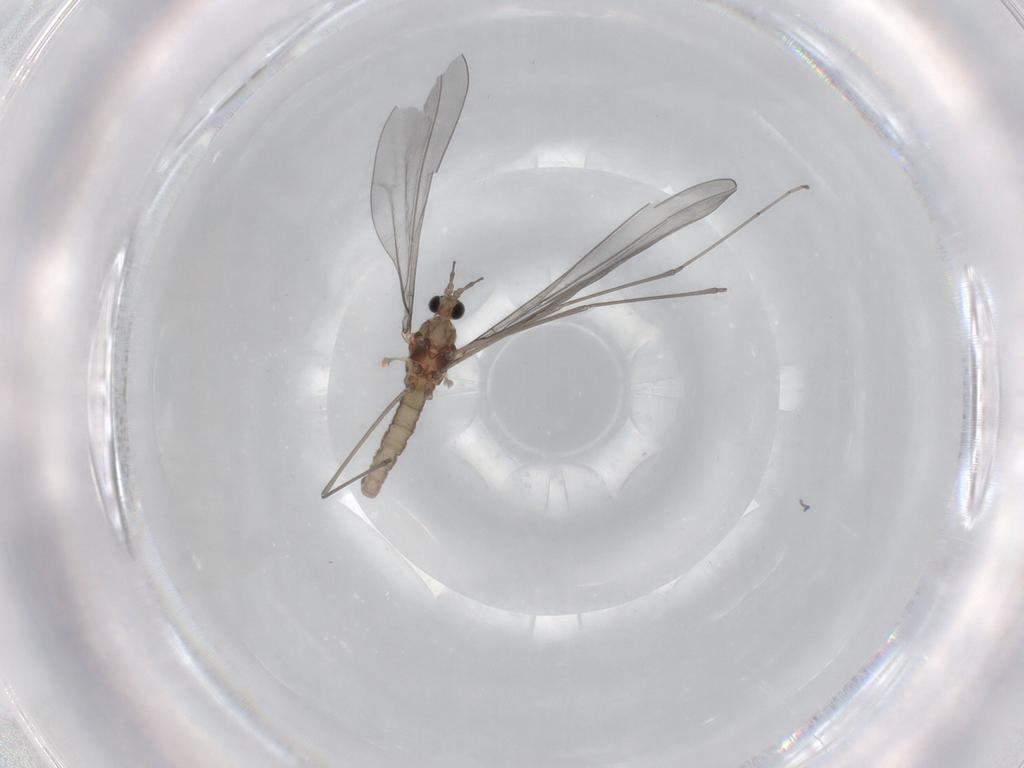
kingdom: Animalia
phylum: Arthropoda
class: Insecta
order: Diptera
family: Cecidomyiidae
